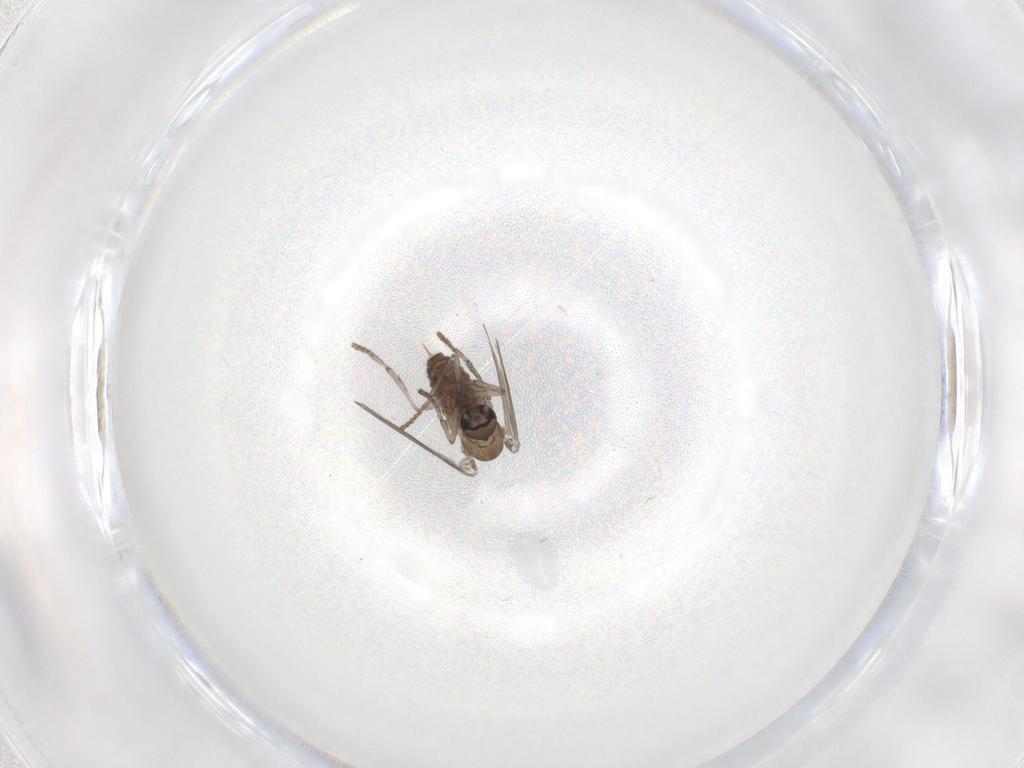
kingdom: Animalia
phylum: Arthropoda
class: Insecta
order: Diptera
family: Psychodidae
